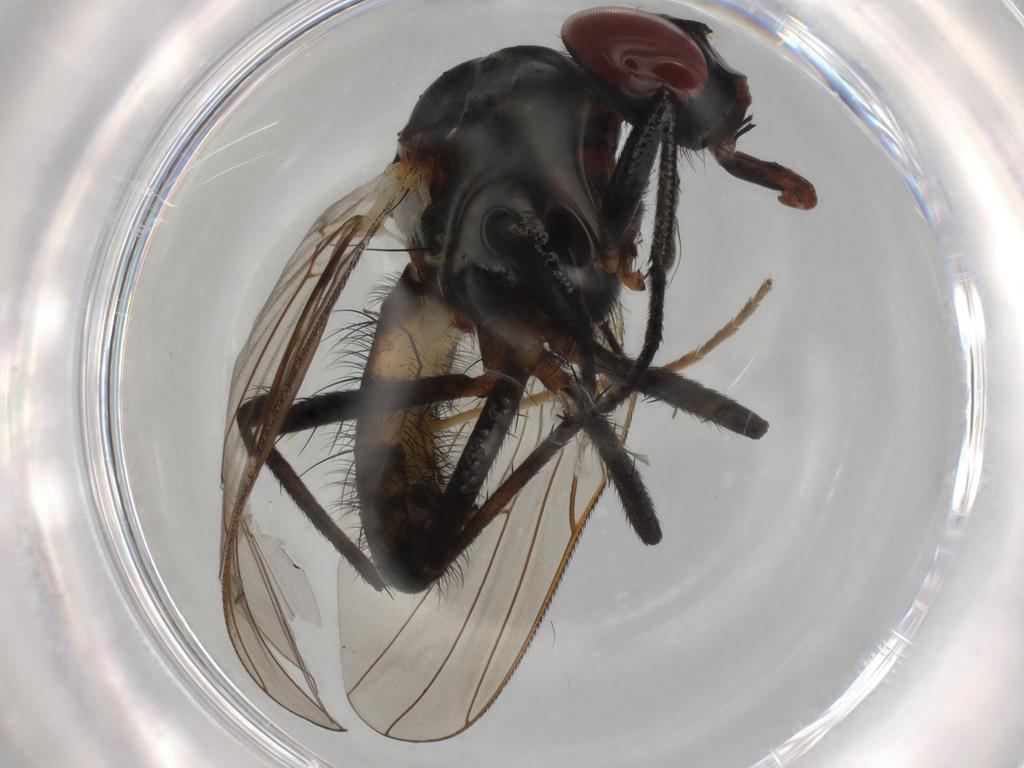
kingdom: Animalia
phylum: Arthropoda
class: Insecta
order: Diptera
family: Anthomyiidae
